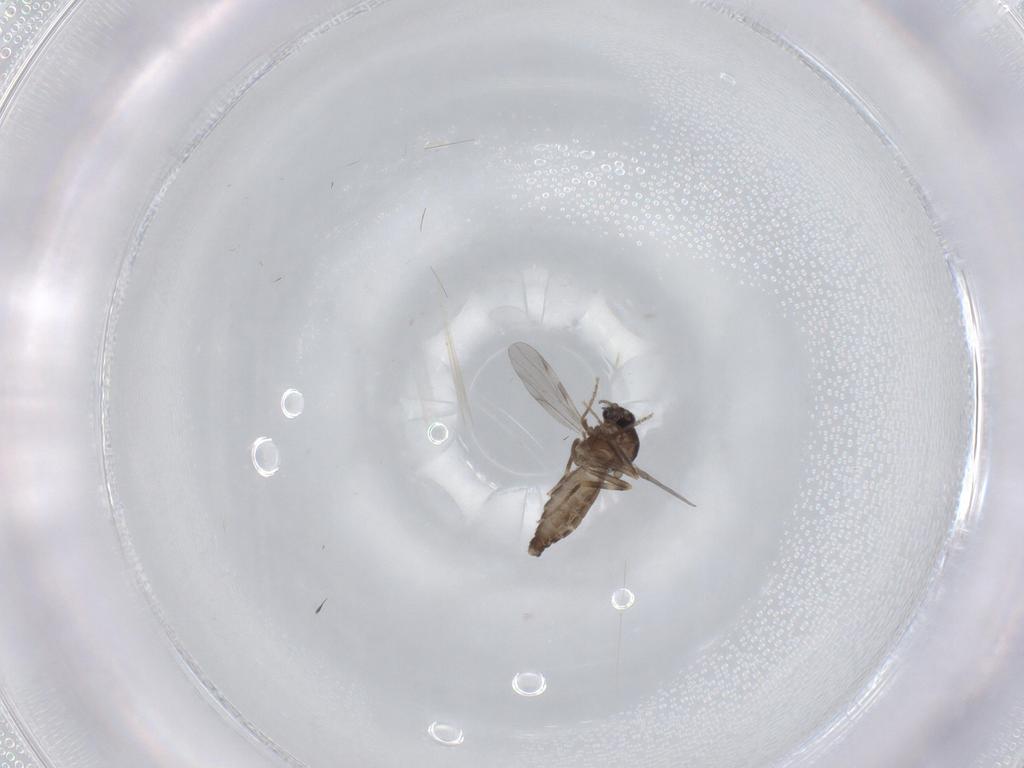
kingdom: Animalia
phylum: Arthropoda
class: Insecta
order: Diptera
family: Ceratopogonidae
